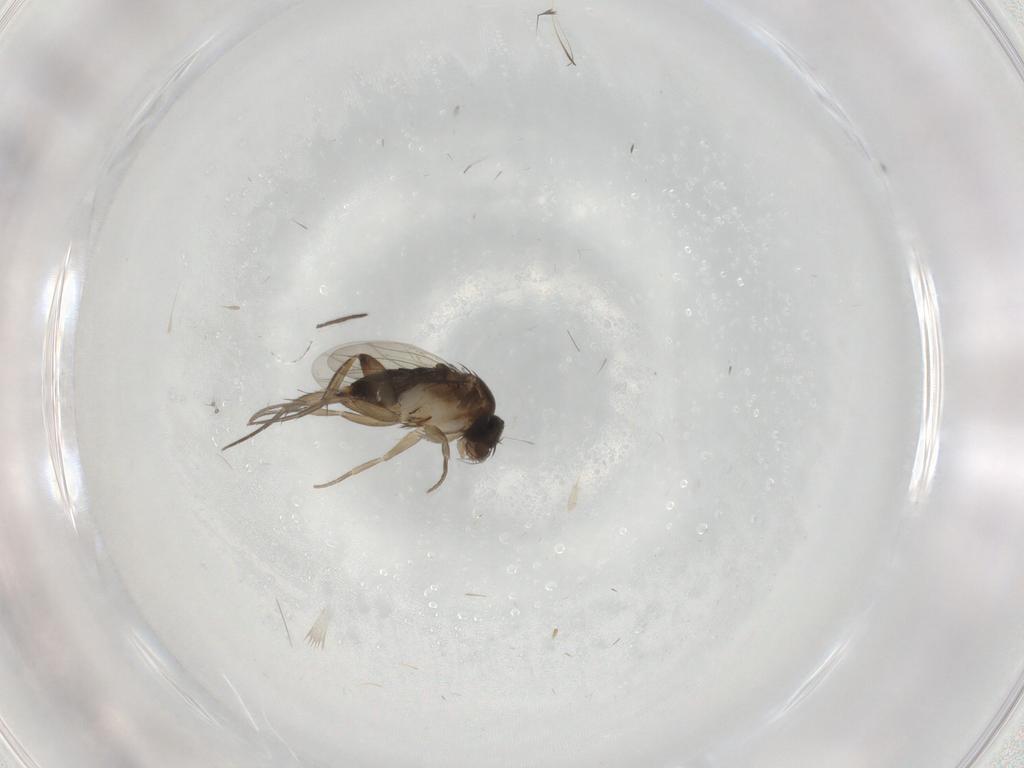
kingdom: Animalia
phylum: Arthropoda
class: Insecta
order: Diptera
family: Phoridae
